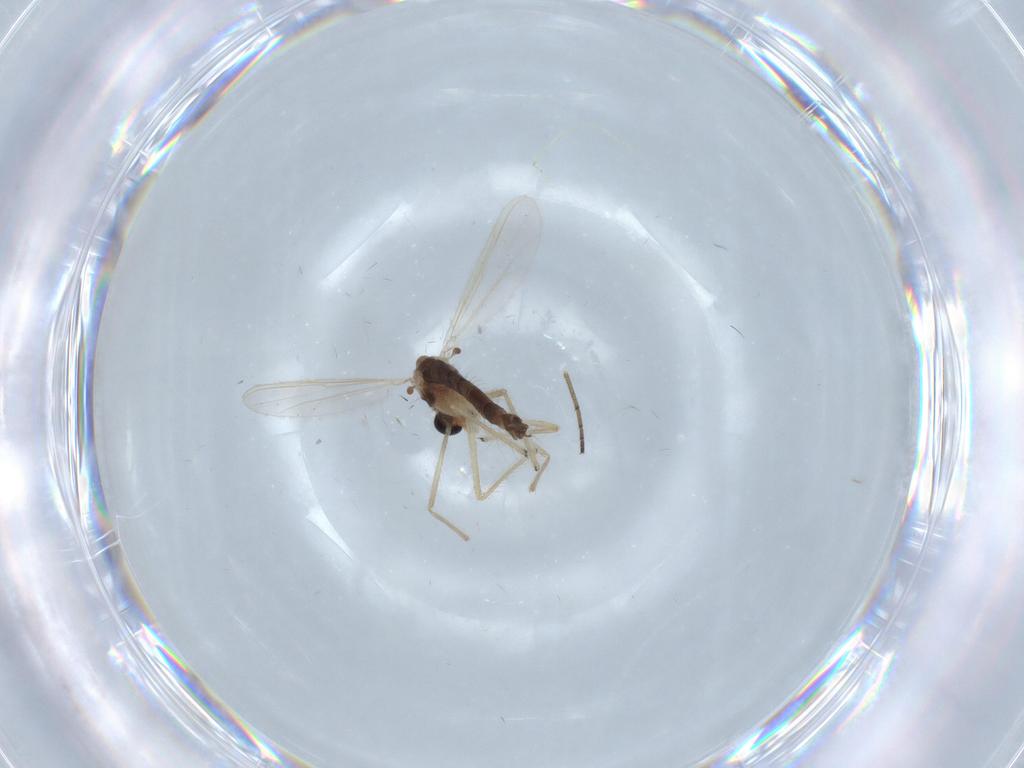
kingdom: Animalia
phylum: Arthropoda
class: Insecta
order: Diptera
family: Chironomidae
